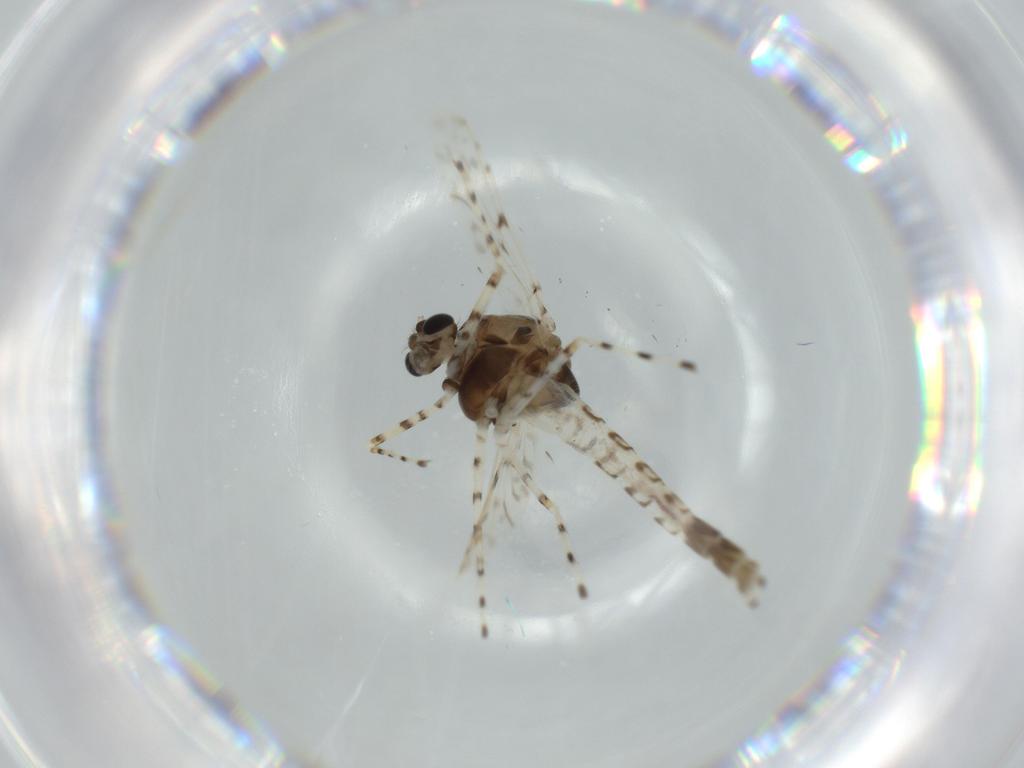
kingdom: Animalia
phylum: Arthropoda
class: Insecta
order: Diptera
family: Chironomidae
